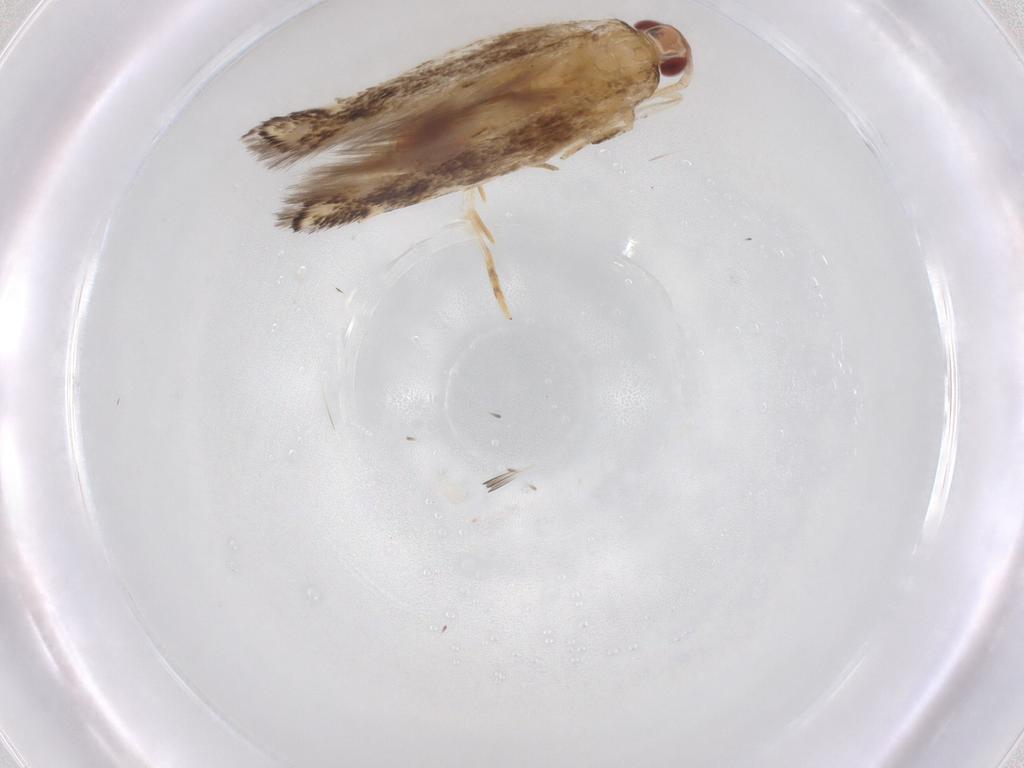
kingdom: Animalia
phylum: Arthropoda
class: Insecta
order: Lepidoptera
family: Cosmopterigidae
